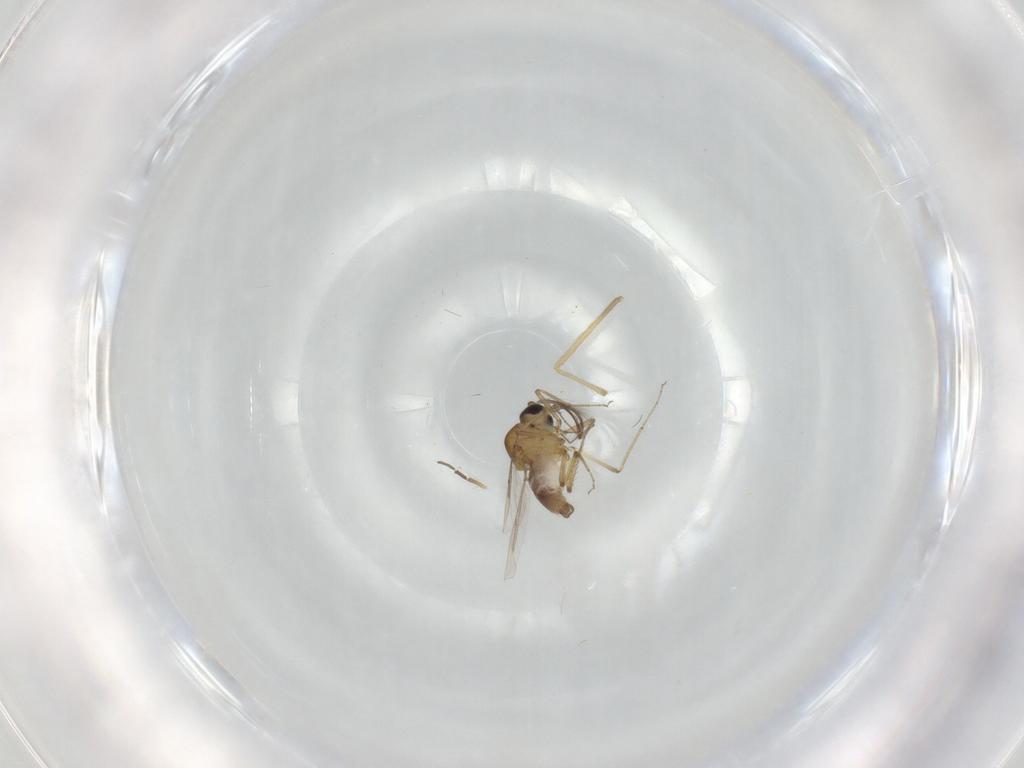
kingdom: Animalia
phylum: Arthropoda
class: Insecta
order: Diptera
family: Chironomidae
